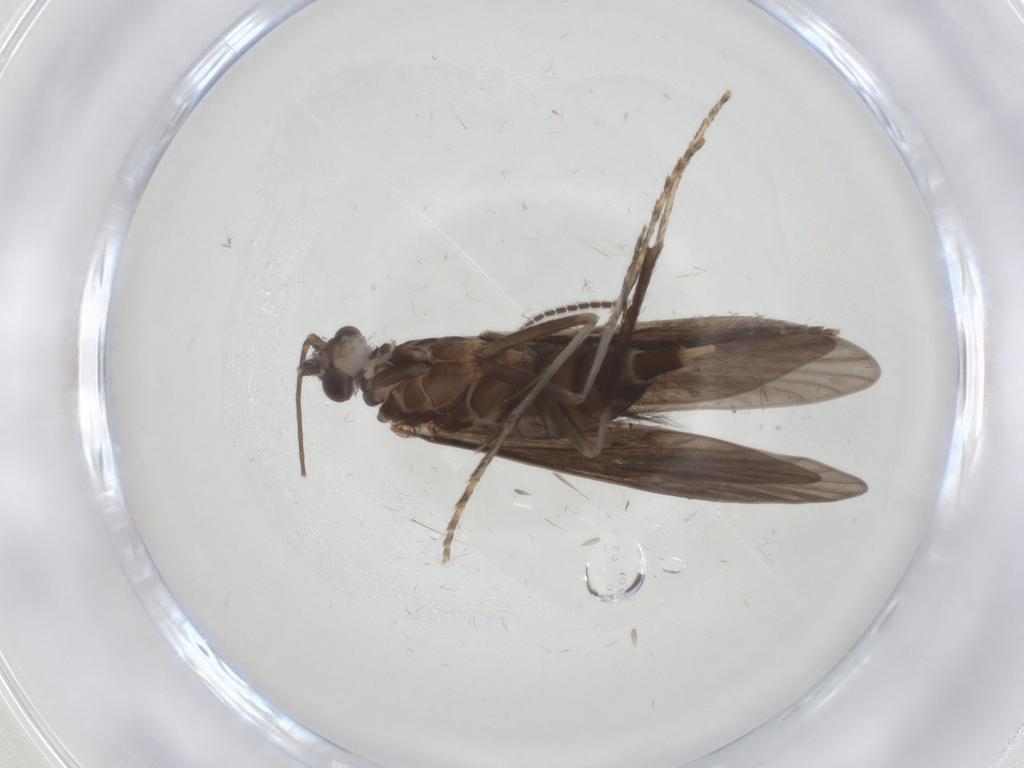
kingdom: Animalia
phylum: Arthropoda
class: Insecta
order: Trichoptera
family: Xiphocentronidae
